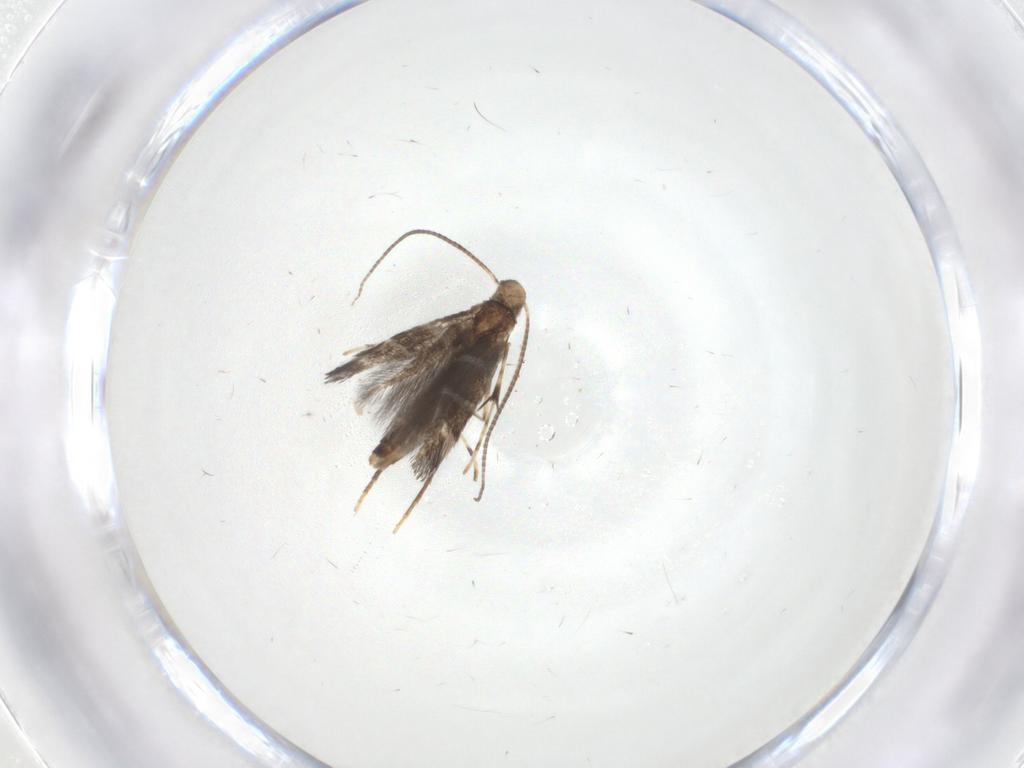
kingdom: Animalia
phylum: Arthropoda
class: Insecta
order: Lepidoptera
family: Gracillariidae
